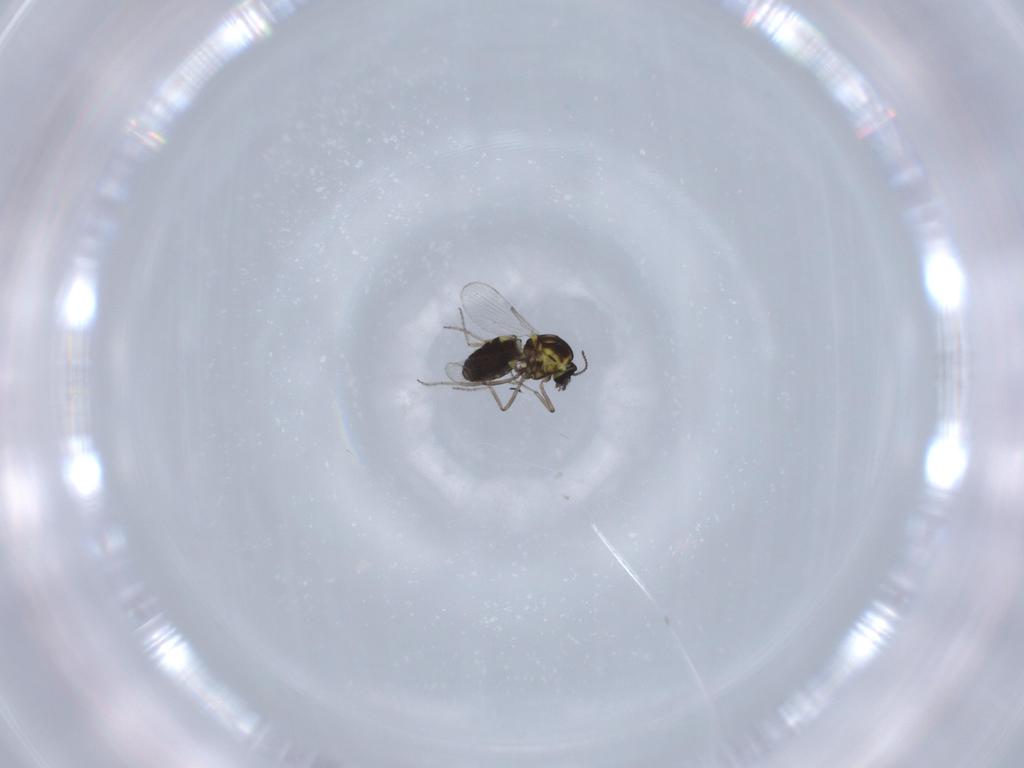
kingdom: Animalia
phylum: Arthropoda
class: Insecta
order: Diptera
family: Ceratopogonidae
